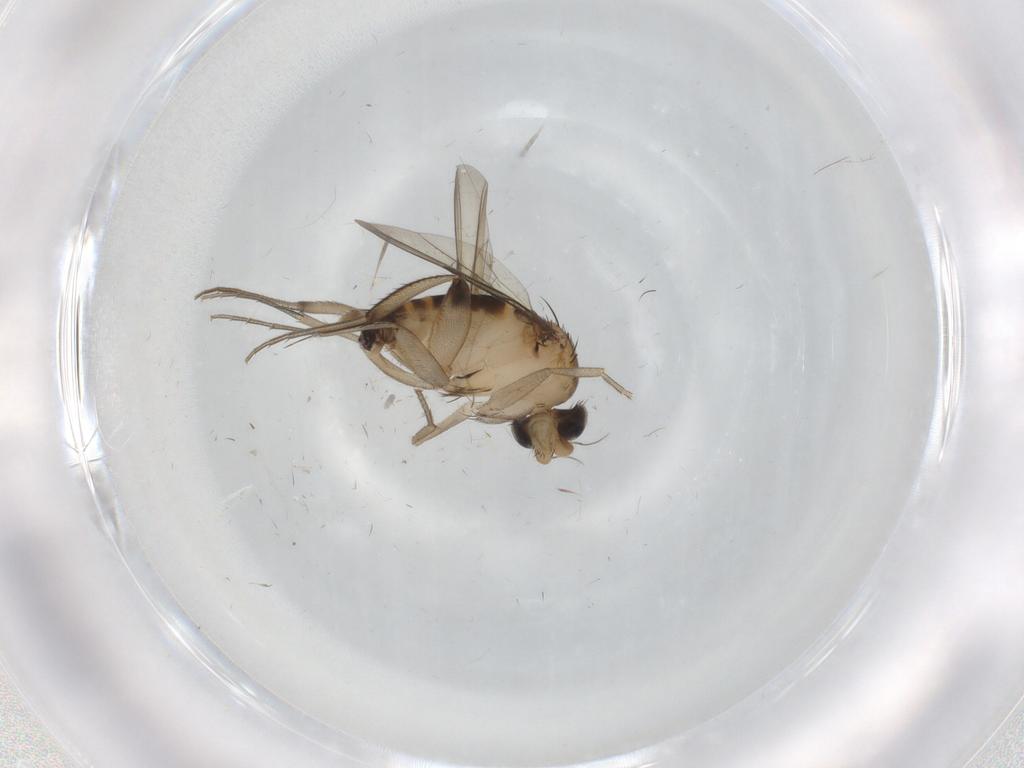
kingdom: Animalia
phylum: Arthropoda
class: Insecta
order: Diptera
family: Phoridae
